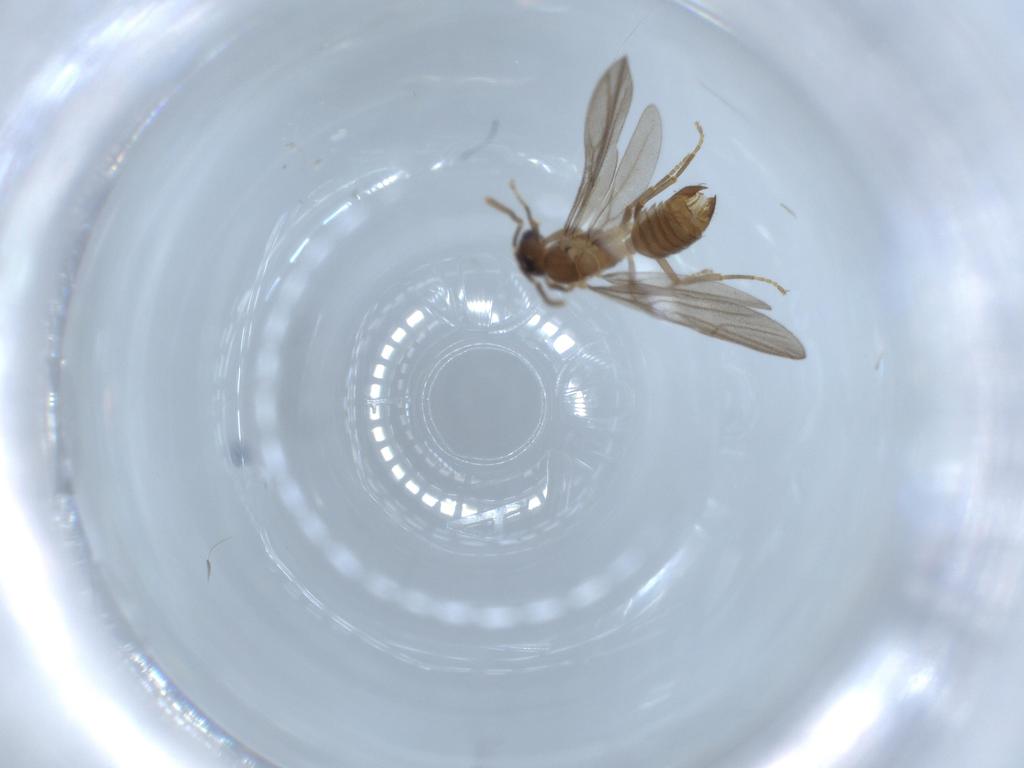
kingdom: Animalia
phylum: Arthropoda
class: Insecta
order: Hymenoptera
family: Formicidae
